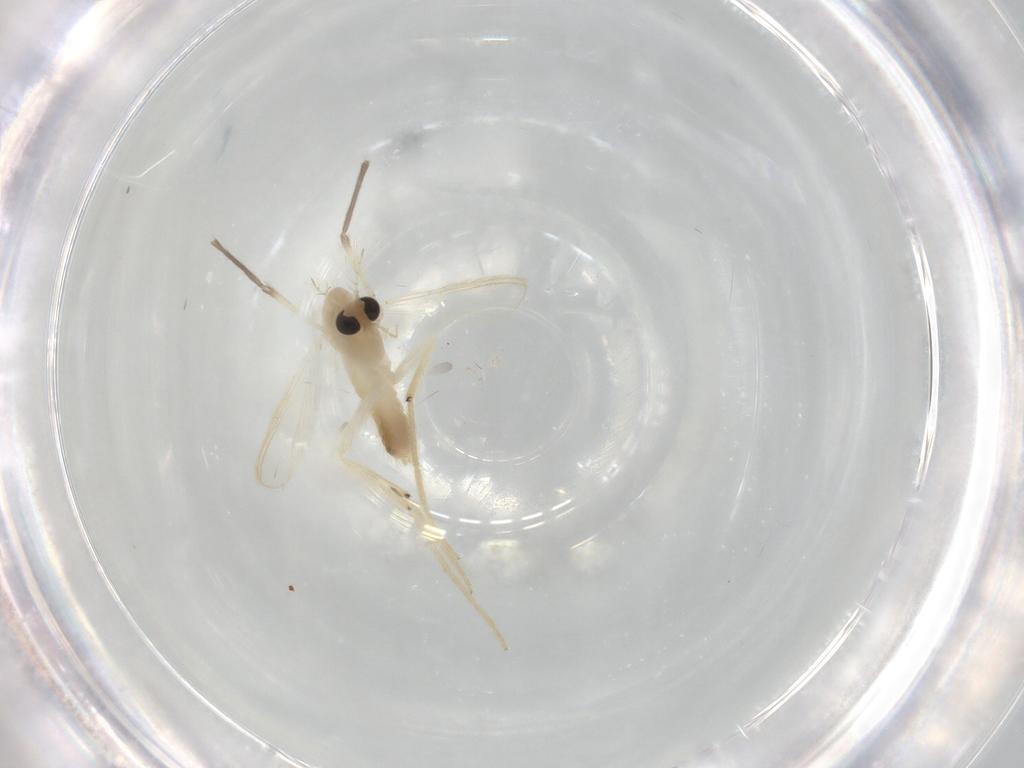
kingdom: Animalia
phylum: Arthropoda
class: Insecta
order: Diptera
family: Chironomidae
